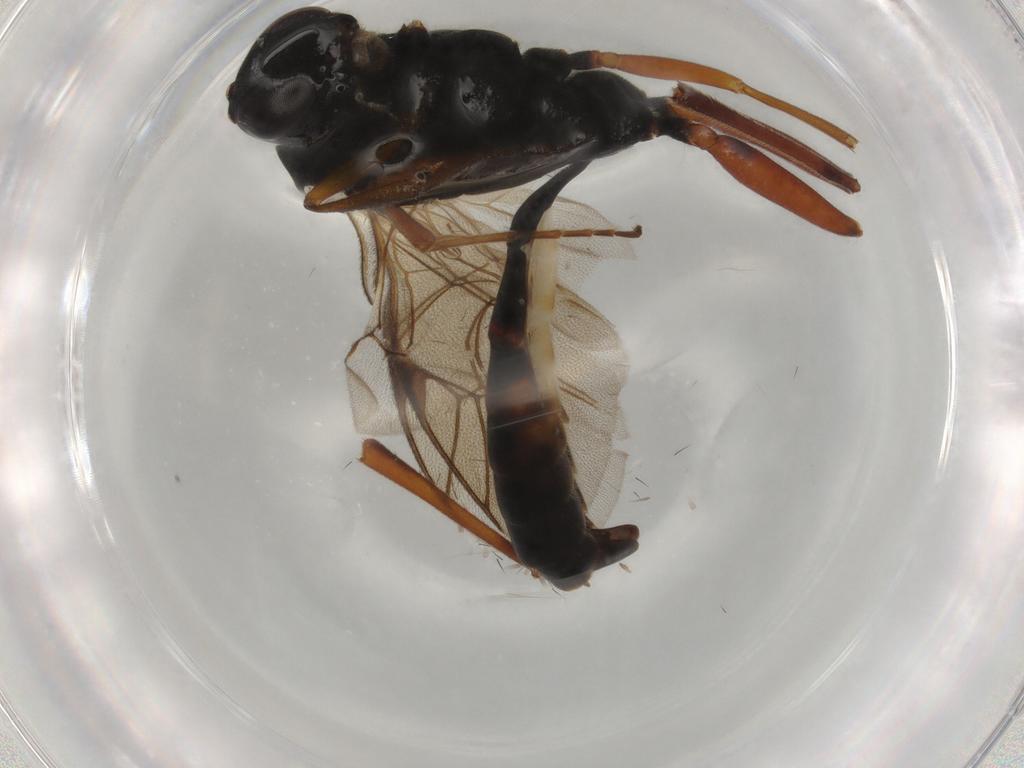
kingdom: Animalia
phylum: Arthropoda
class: Insecta
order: Hymenoptera
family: Ichneumonidae
